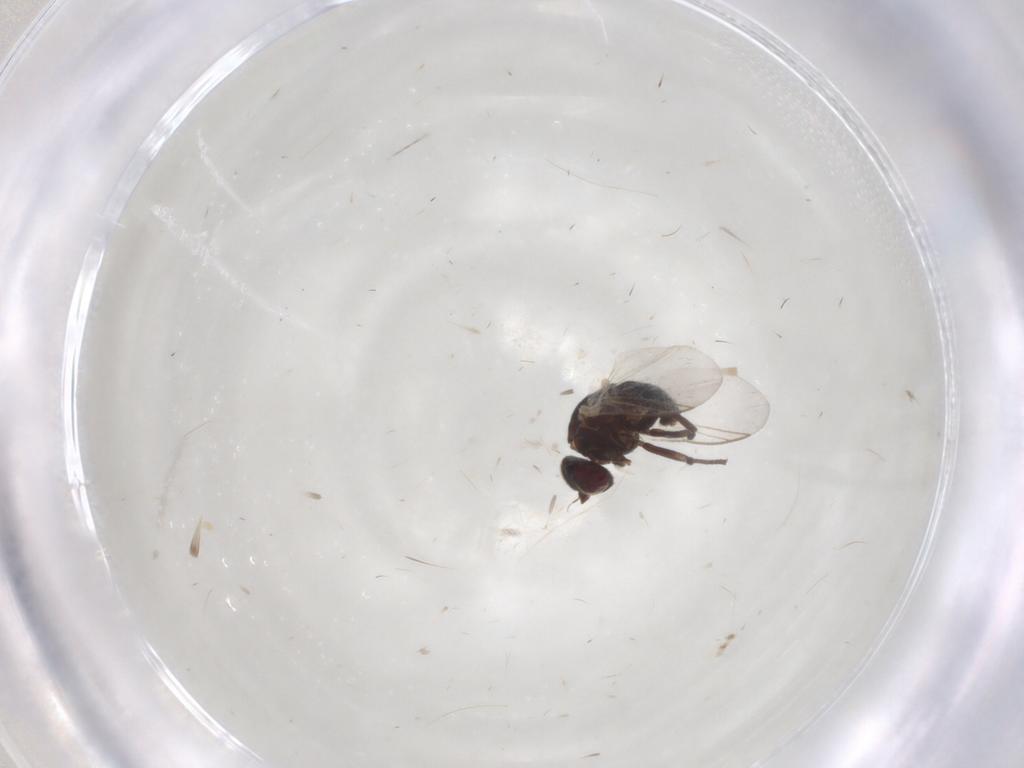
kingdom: Animalia
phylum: Arthropoda
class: Insecta
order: Diptera
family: Agromyzidae
